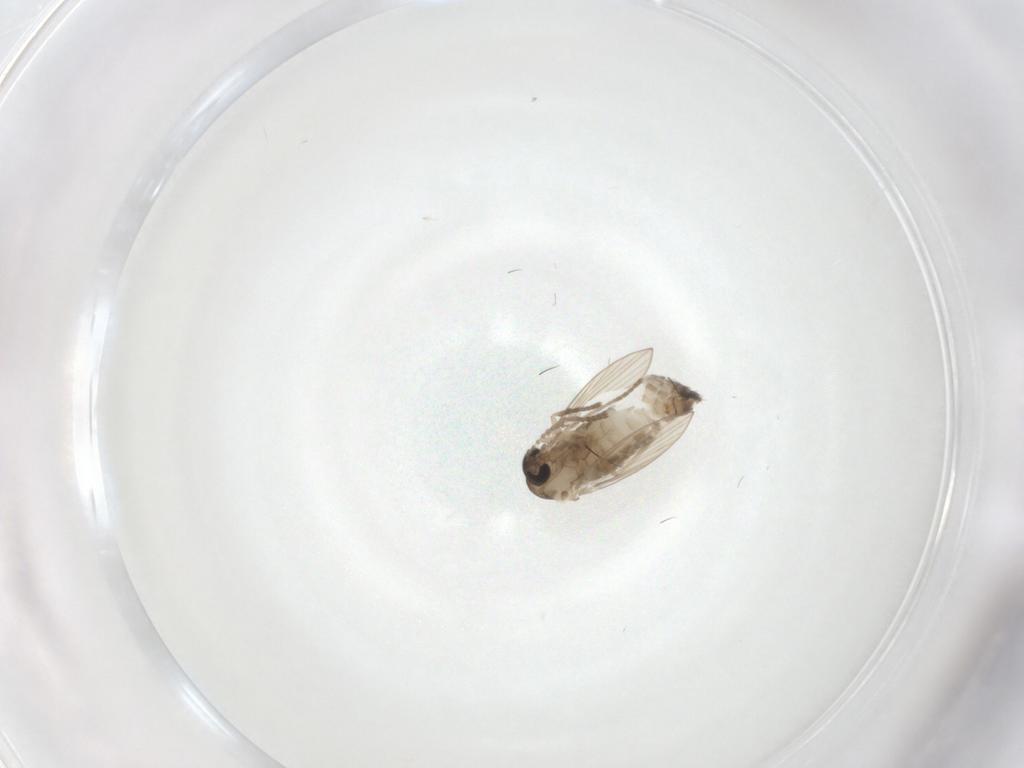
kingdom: Animalia
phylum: Arthropoda
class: Insecta
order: Diptera
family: Psychodidae
